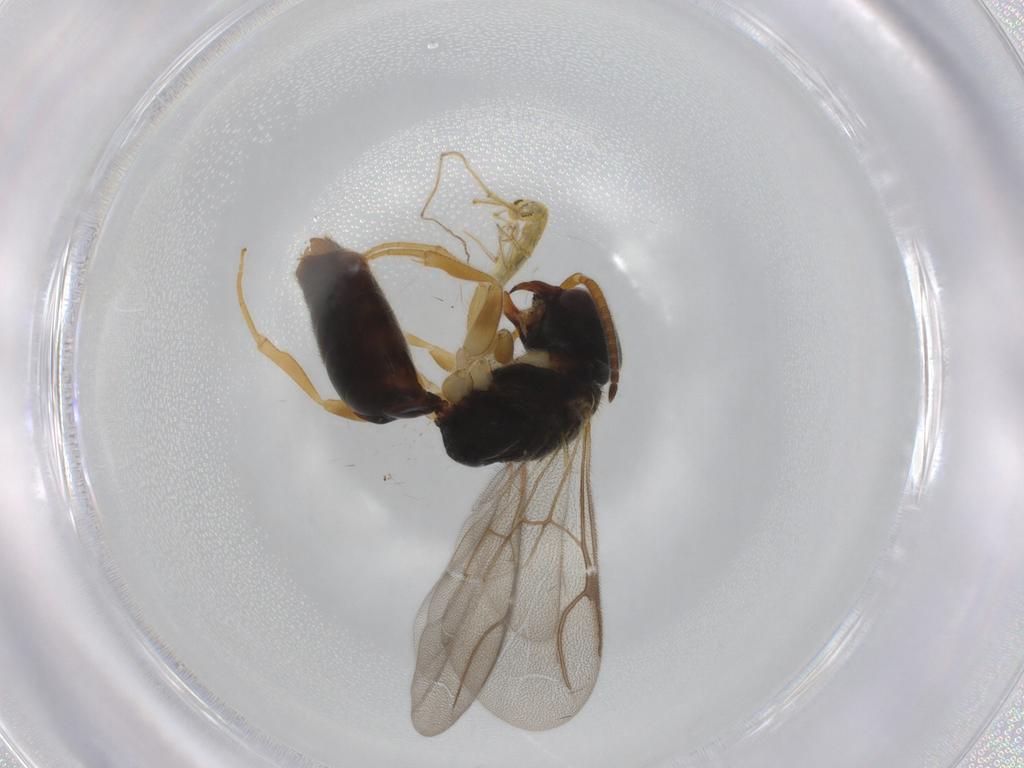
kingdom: Animalia
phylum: Arthropoda
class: Insecta
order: Hymenoptera
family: Bethylidae
